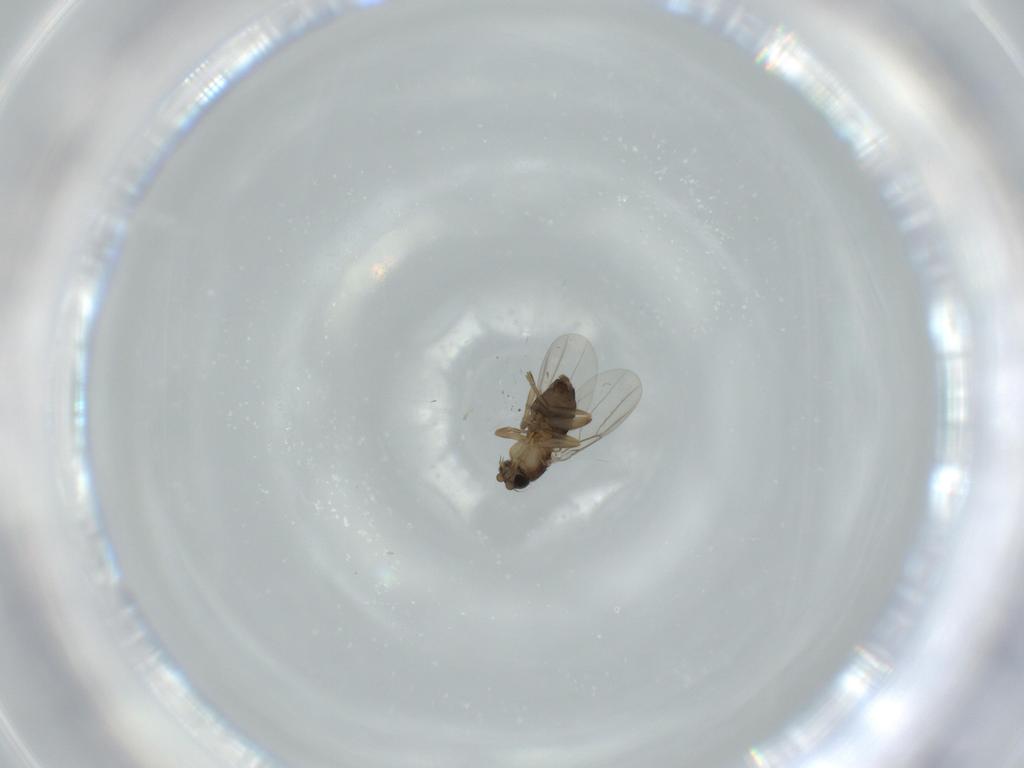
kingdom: Animalia
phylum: Arthropoda
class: Insecta
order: Diptera
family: Phoridae
